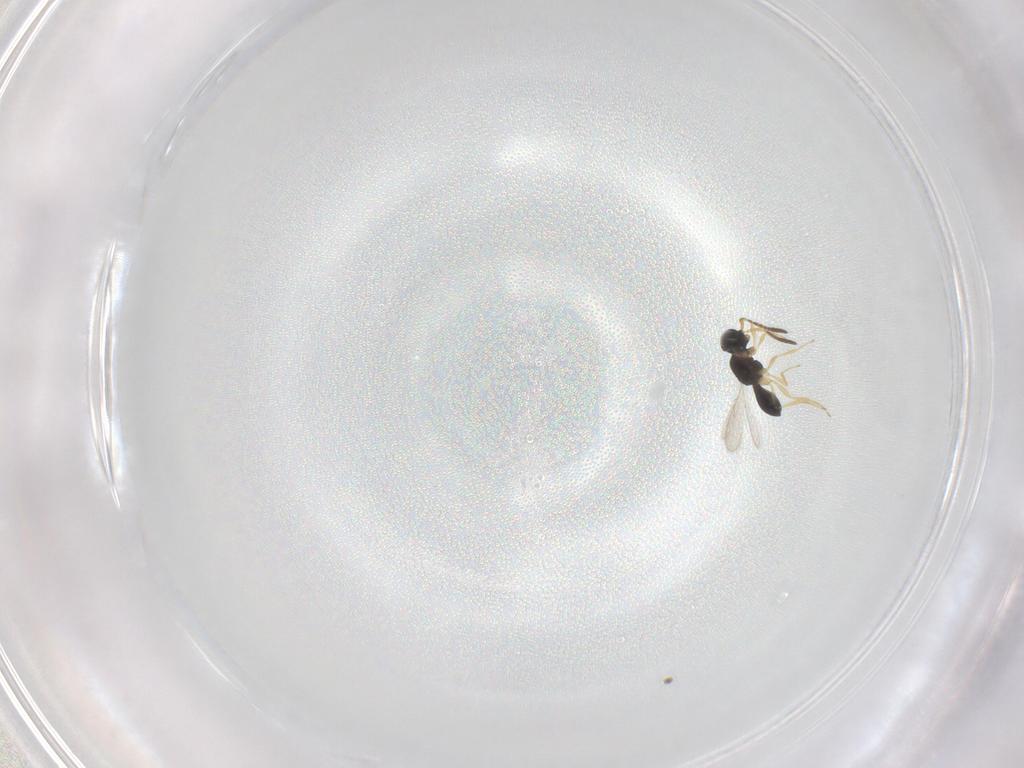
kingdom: Animalia
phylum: Arthropoda
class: Insecta
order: Hymenoptera
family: Scelionidae
